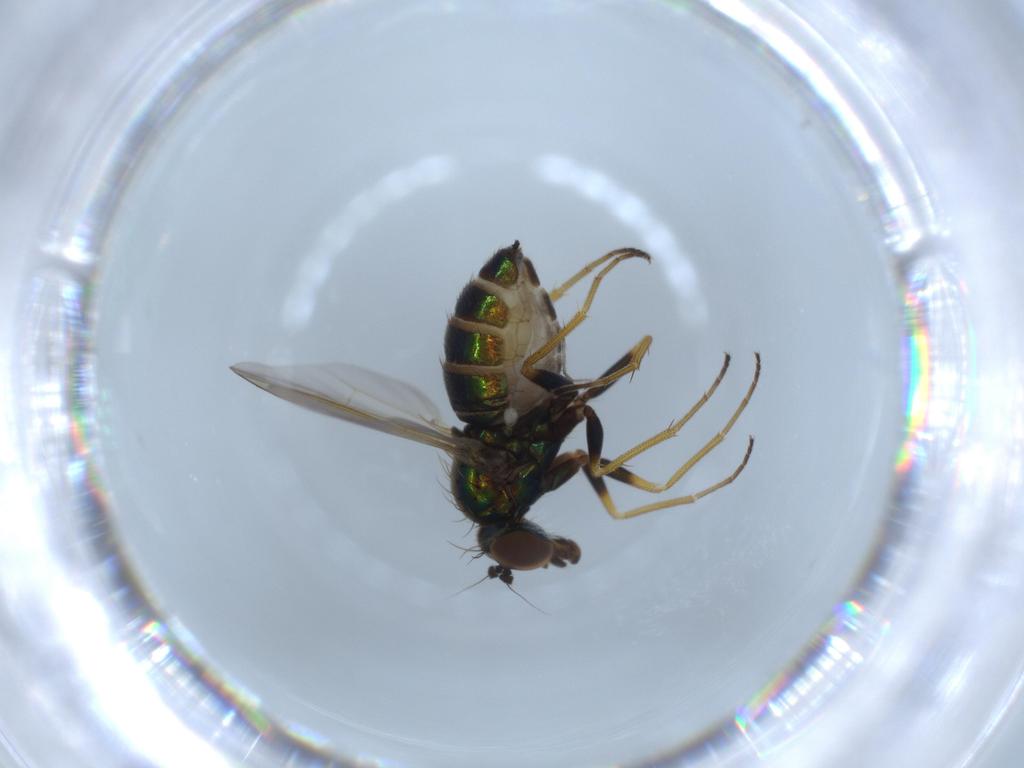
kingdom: Animalia
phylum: Arthropoda
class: Insecta
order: Diptera
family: Dolichopodidae
